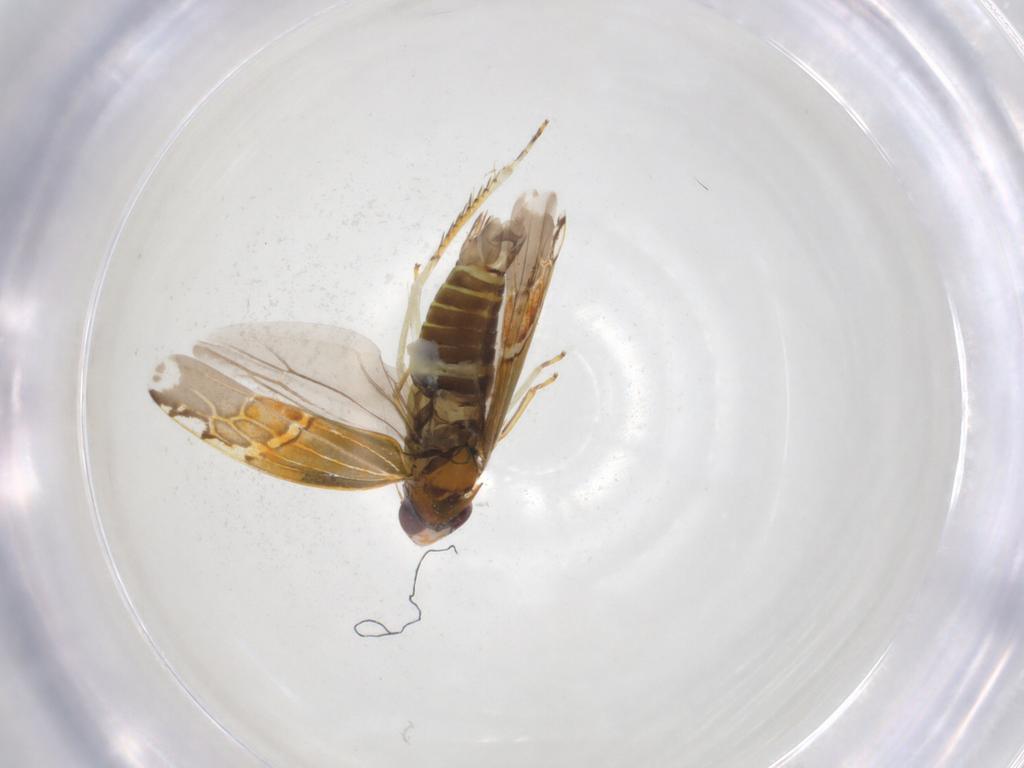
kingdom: Animalia
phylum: Arthropoda
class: Insecta
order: Hemiptera
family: Cicadellidae
